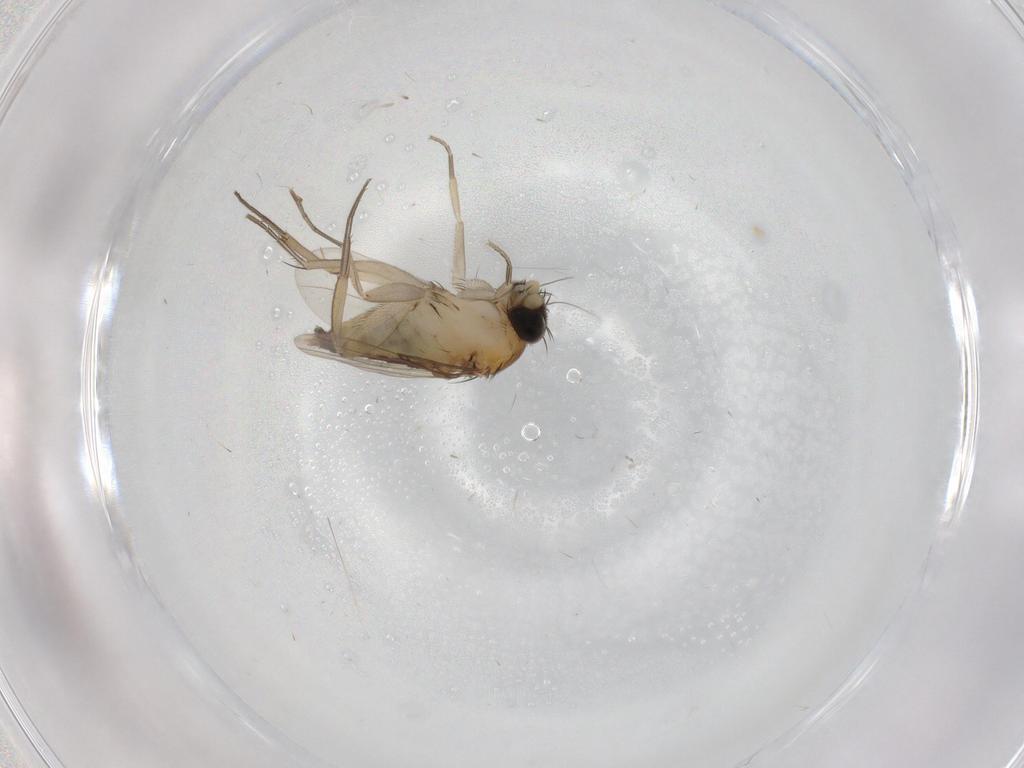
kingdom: Animalia
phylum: Arthropoda
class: Insecta
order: Diptera
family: Phoridae
